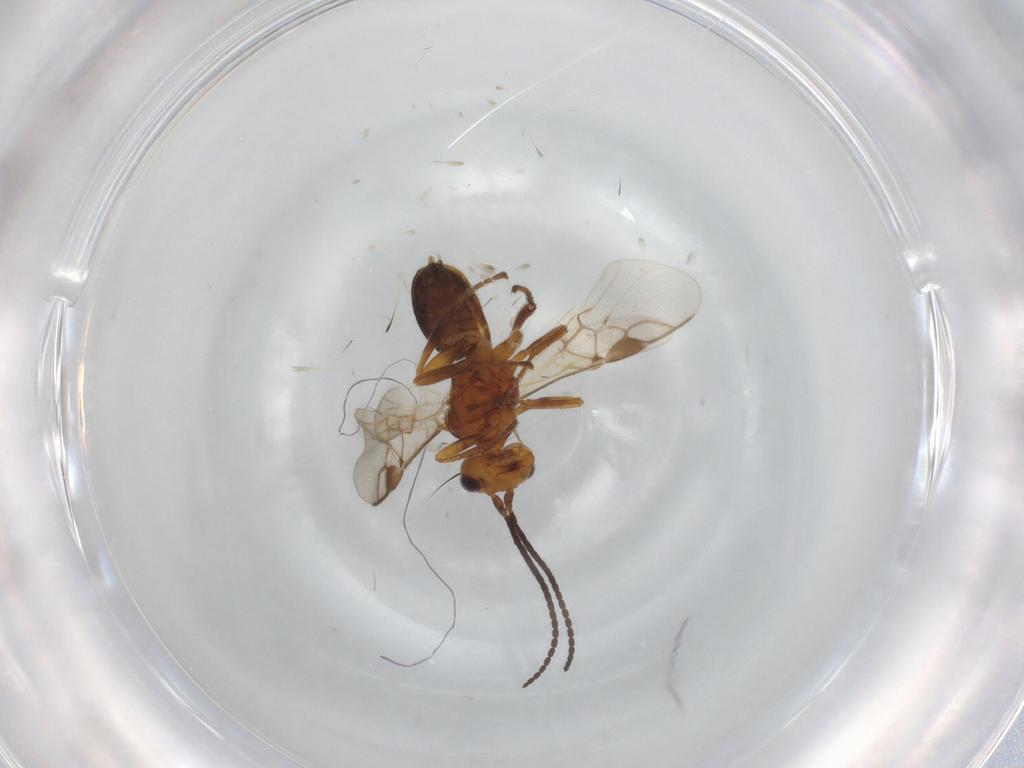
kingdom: Animalia
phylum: Arthropoda
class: Insecta
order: Hymenoptera
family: Braconidae
